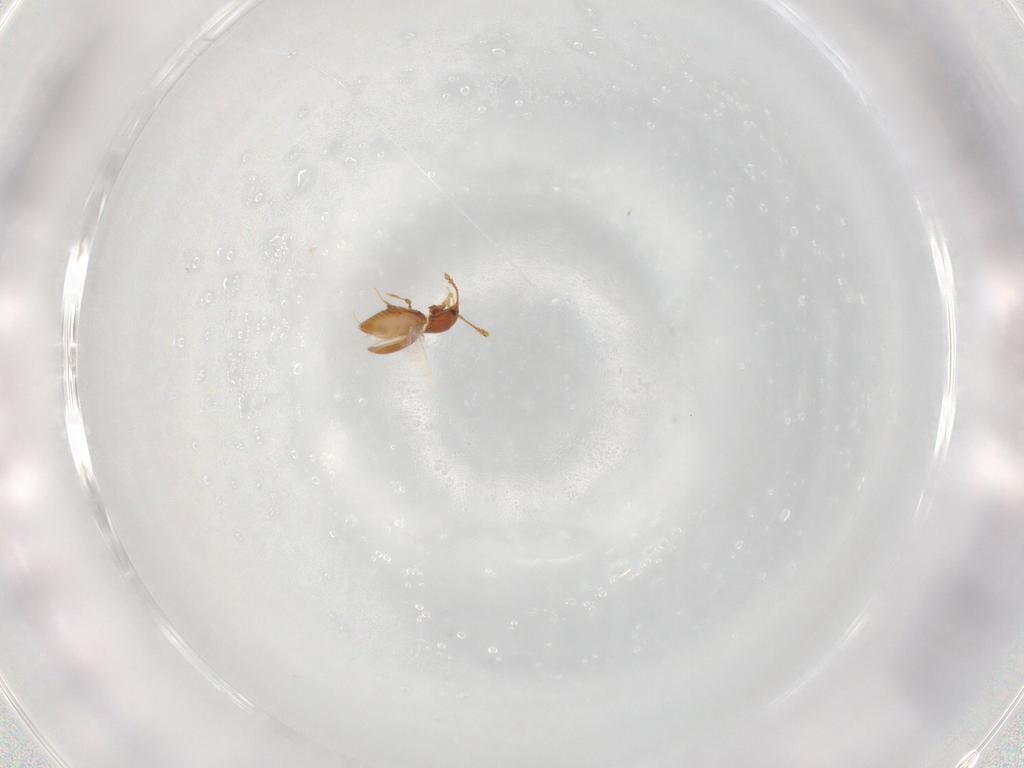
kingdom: Animalia
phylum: Arthropoda
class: Insecta
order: Coleoptera
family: Staphylinidae
